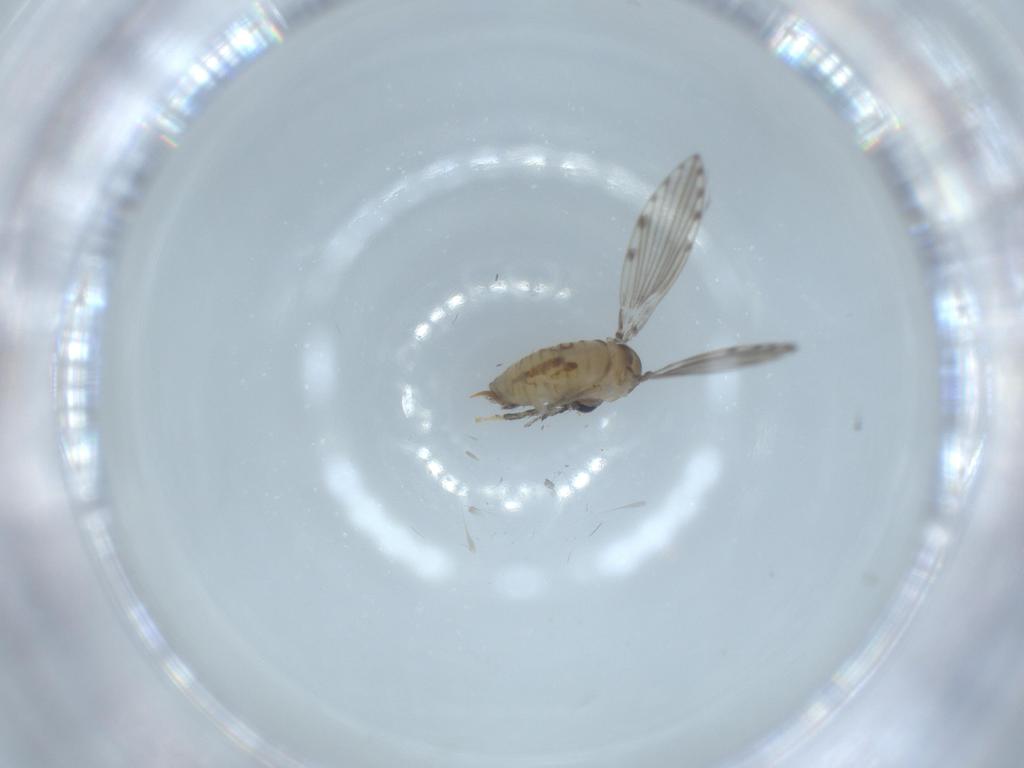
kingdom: Animalia
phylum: Arthropoda
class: Insecta
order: Diptera
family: Psychodidae
